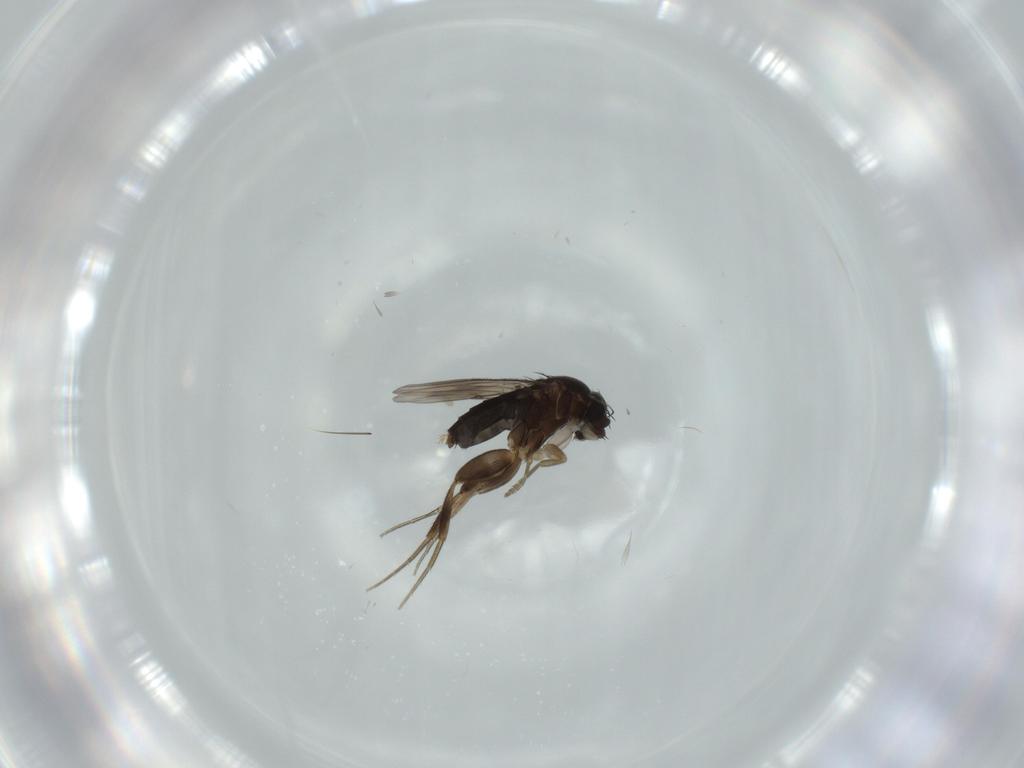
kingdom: Animalia
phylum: Arthropoda
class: Insecta
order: Diptera
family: Phoridae
